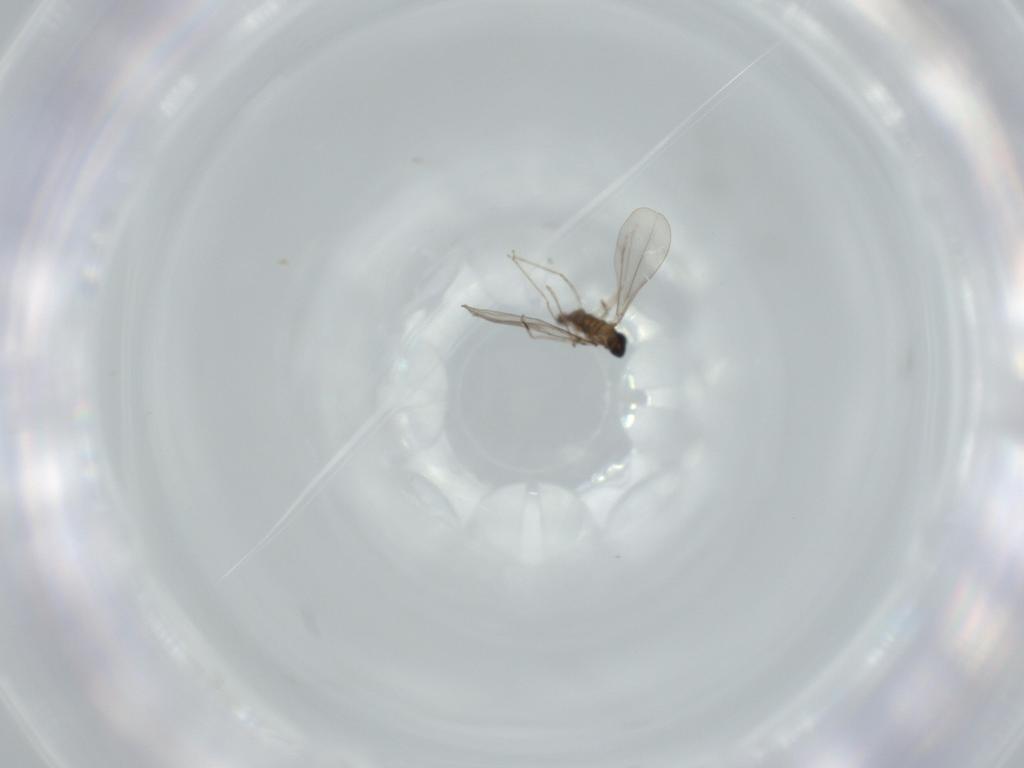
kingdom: Animalia
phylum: Arthropoda
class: Insecta
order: Diptera
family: Cecidomyiidae
